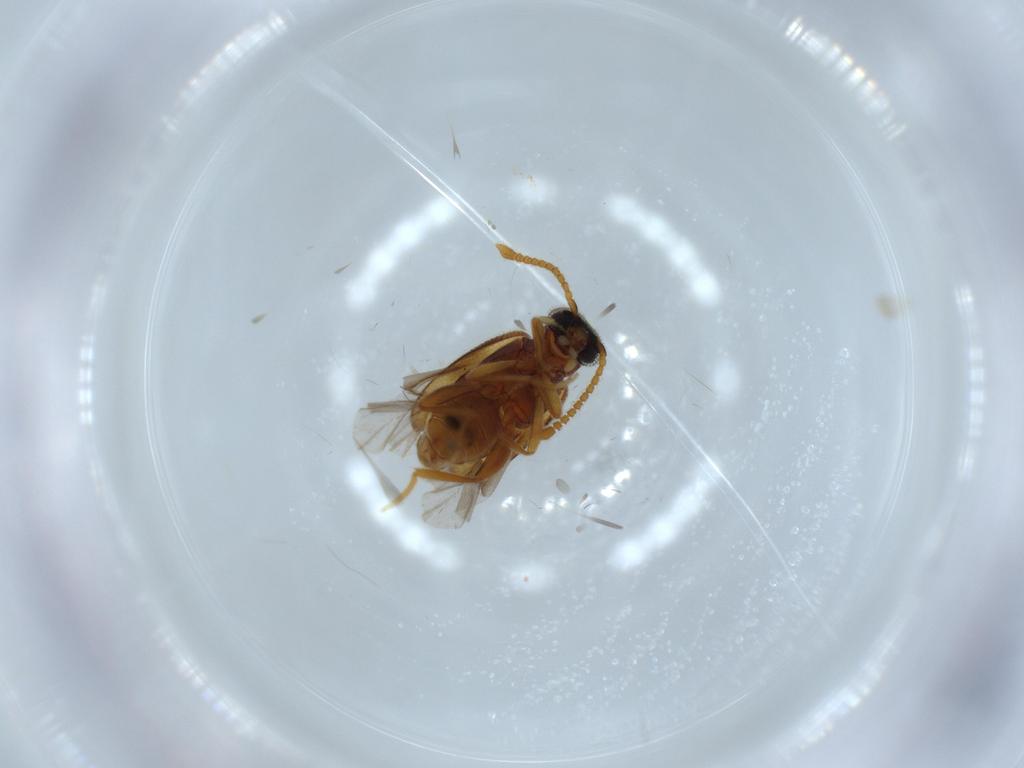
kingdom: Animalia
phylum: Arthropoda
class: Insecta
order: Coleoptera
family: Aderidae
